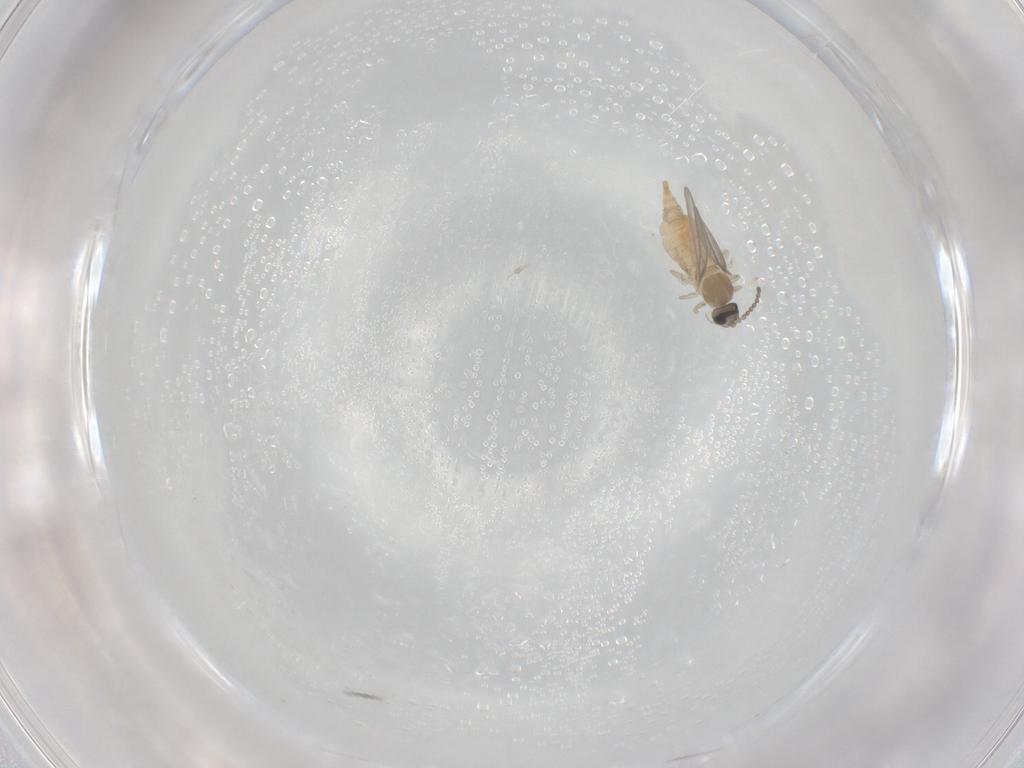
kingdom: Animalia
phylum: Arthropoda
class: Insecta
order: Diptera
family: Cecidomyiidae
